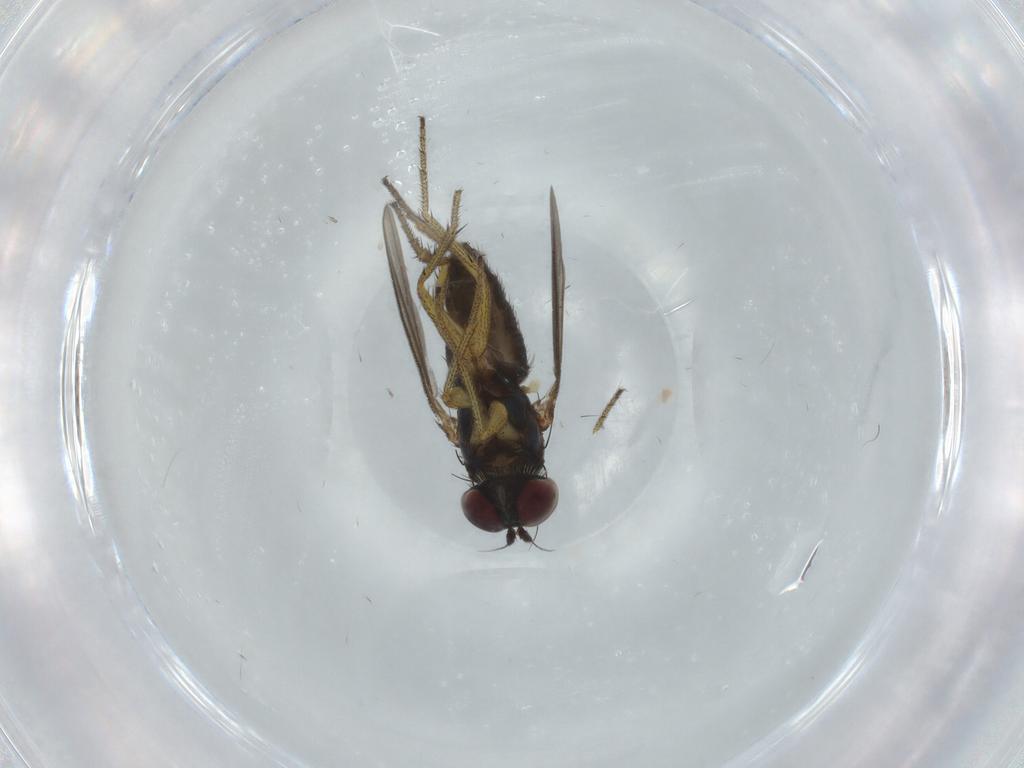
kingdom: Animalia
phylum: Arthropoda
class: Insecta
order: Diptera
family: Dolichopodidae
